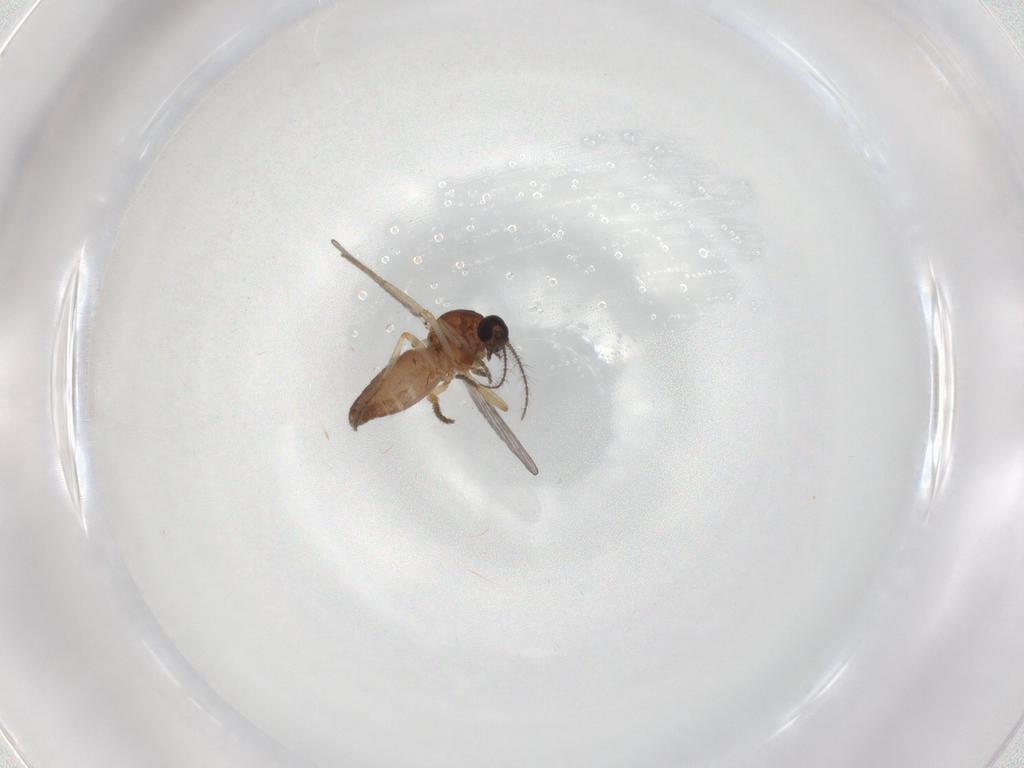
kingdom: Animalia
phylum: Arthropoda
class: Insecta
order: Diptera
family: Ceratopogonidae
